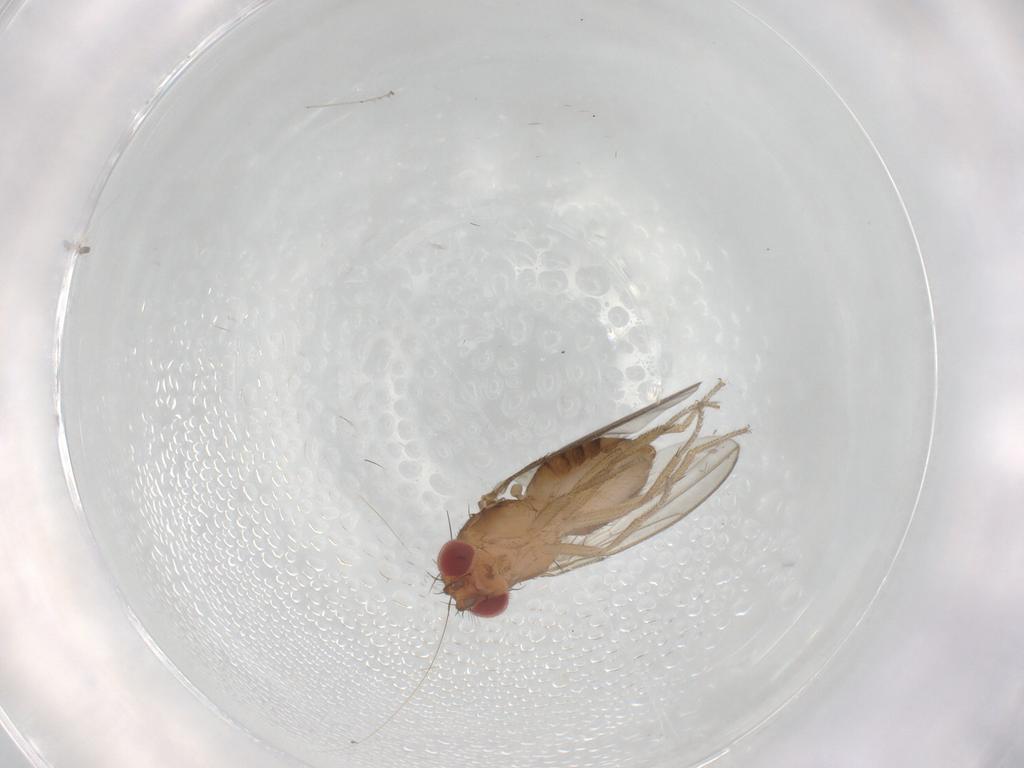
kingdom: Animalia
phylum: Arthropoda
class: Insecta
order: Diptera
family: Drosophilidae
